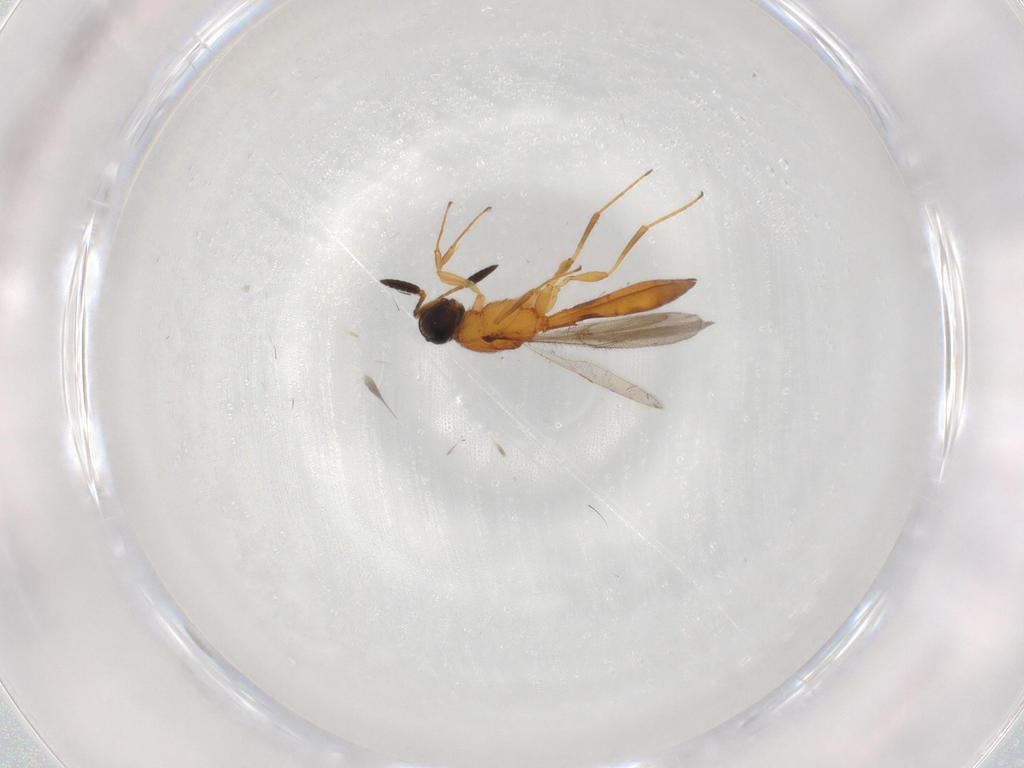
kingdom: Animalia
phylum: Arthropoda
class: Insecta
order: Hymenoptera
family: Scelionidae
